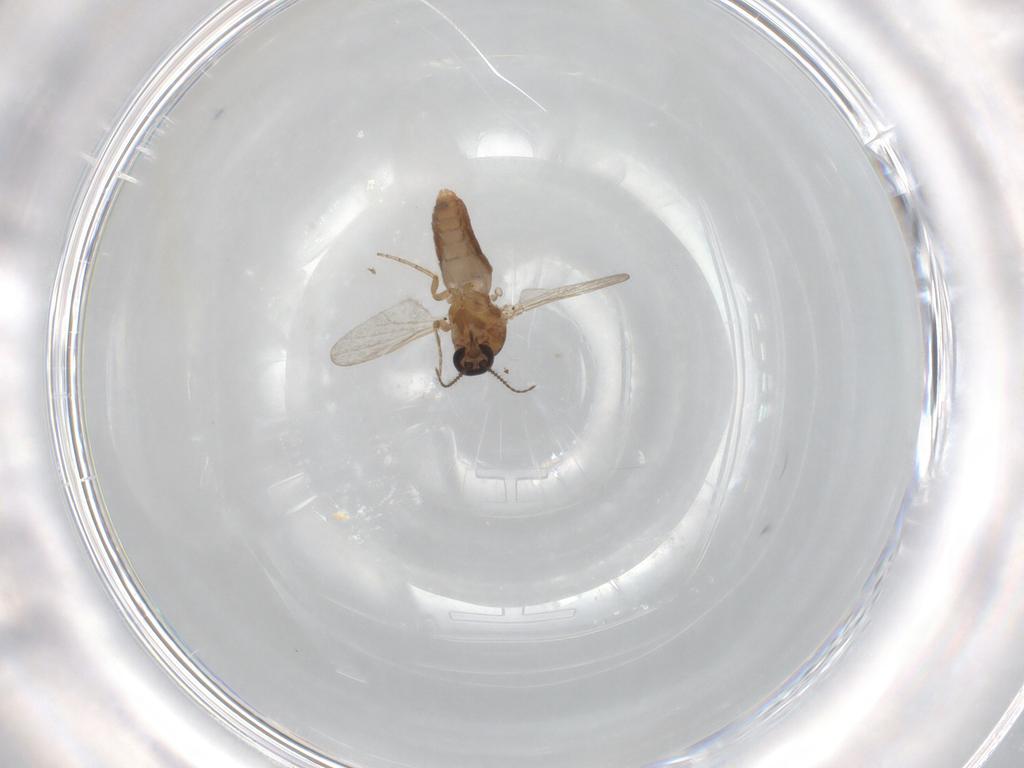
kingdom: Animalia
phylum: Arthropoda
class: Insecta
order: Diptera
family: Ceratopogonidae
